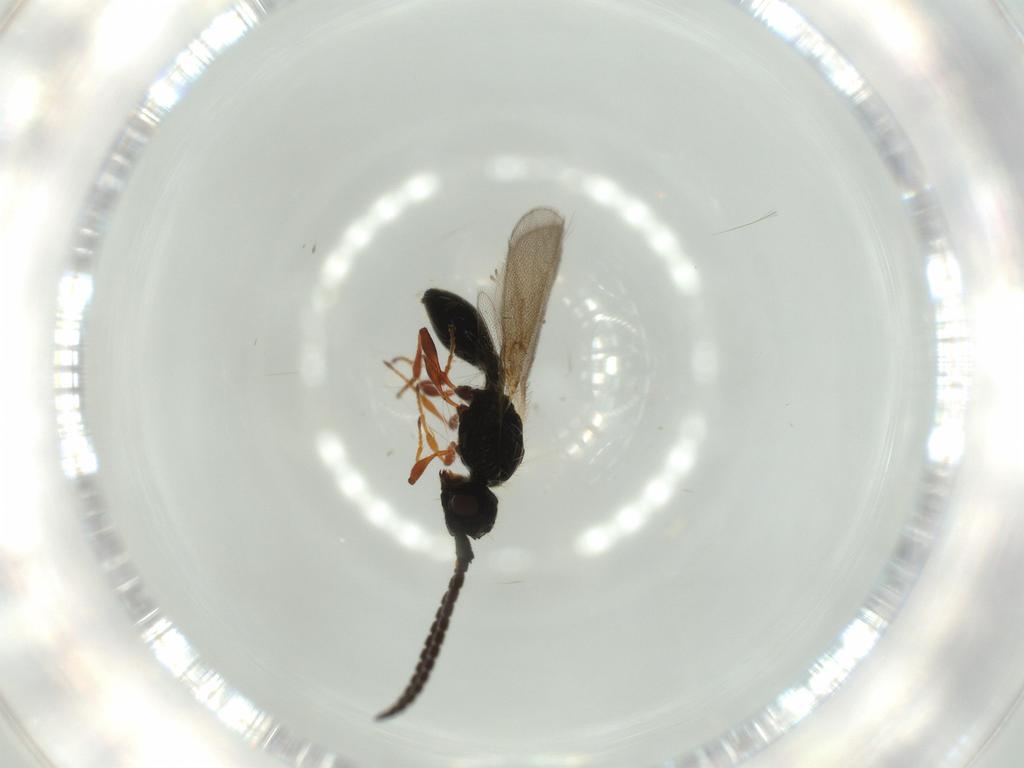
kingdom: Animalia
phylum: Arthropoda
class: Insecta
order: Hymenoptera
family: Diapriidae
